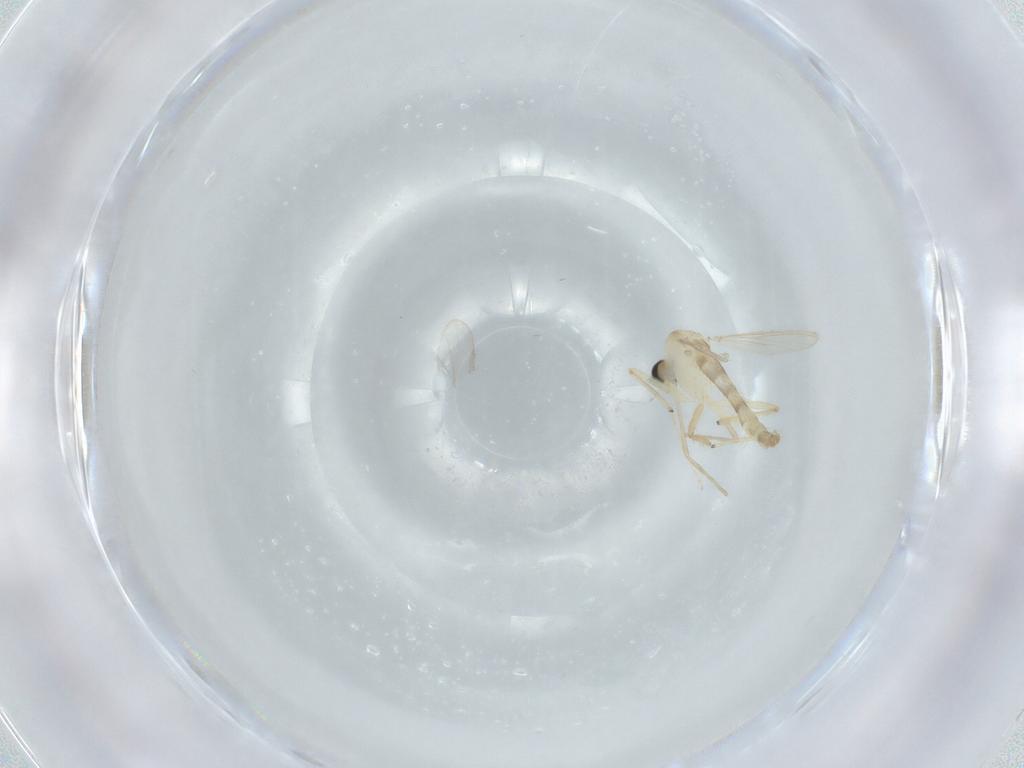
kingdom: Animalia
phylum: Arthropoda
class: Insecta
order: Diptera
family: Chironomidae
